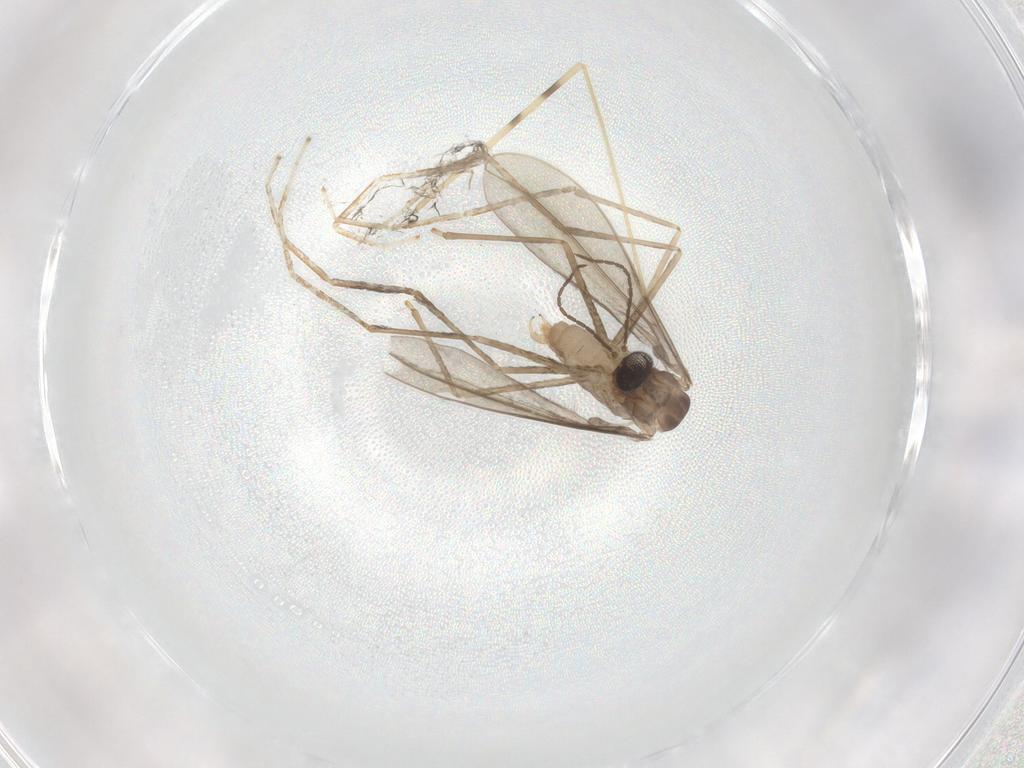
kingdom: Animalia
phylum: Arthropoda
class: Insecta
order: Diptera
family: Cecidomyiidae
